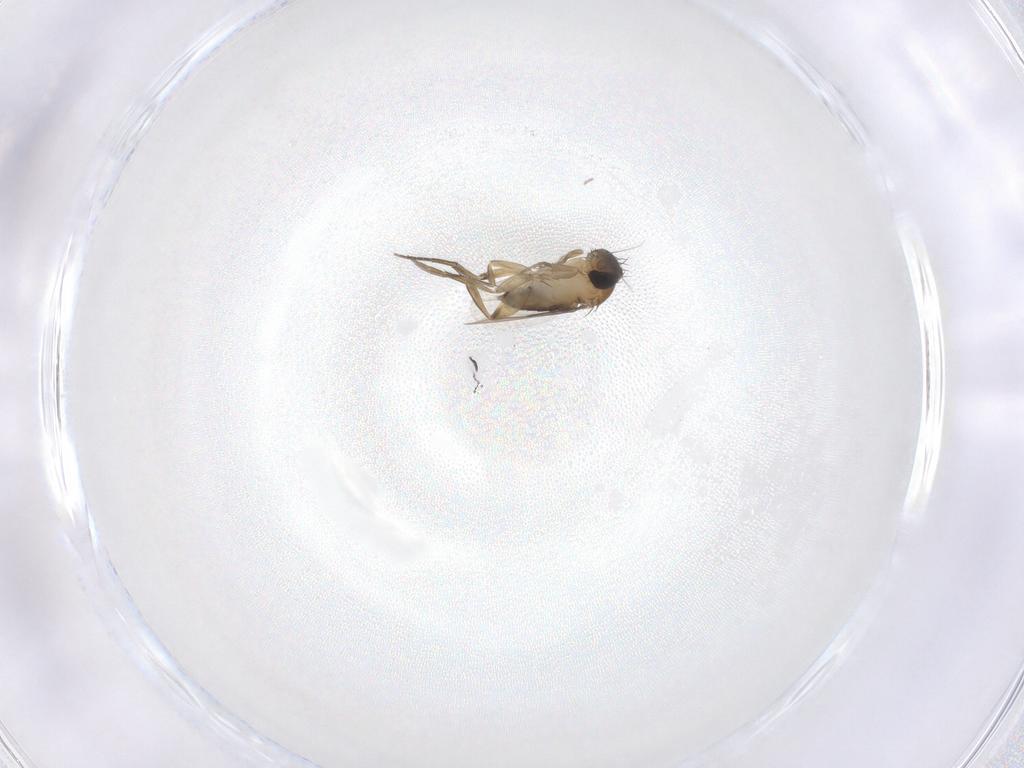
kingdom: Animalia
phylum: Arthropoda
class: Insecta
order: Diptera
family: Phoridae
